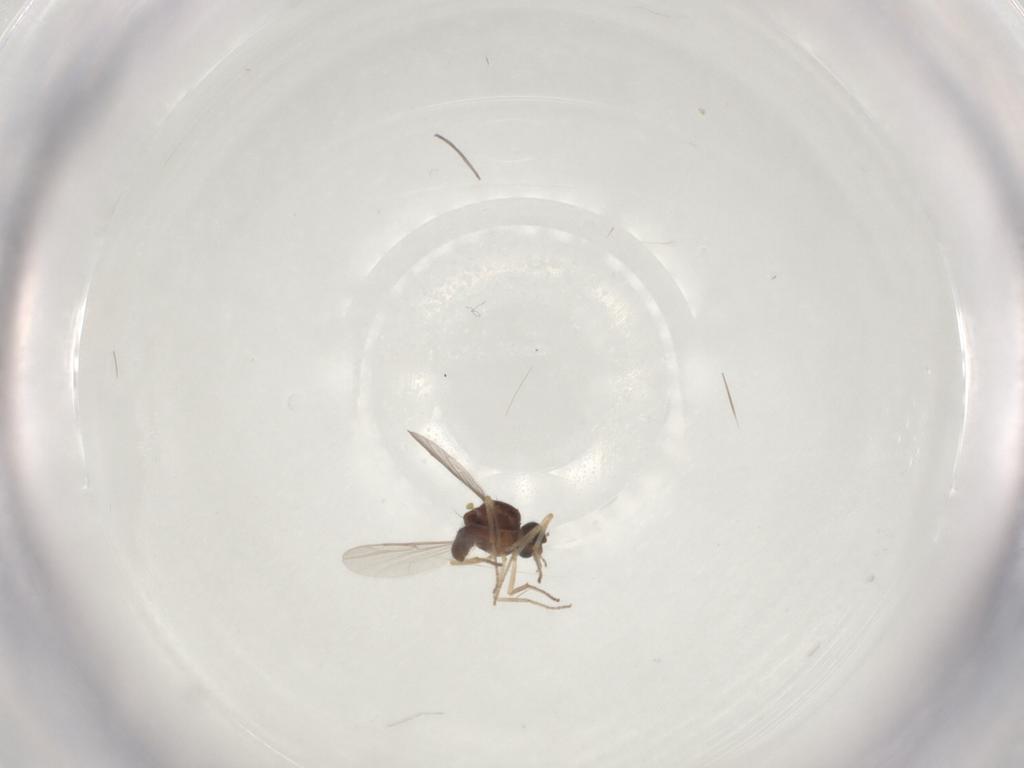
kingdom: Animalia
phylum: Arthropoda
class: Insecta
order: Diptera
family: Ceratopogonidae
